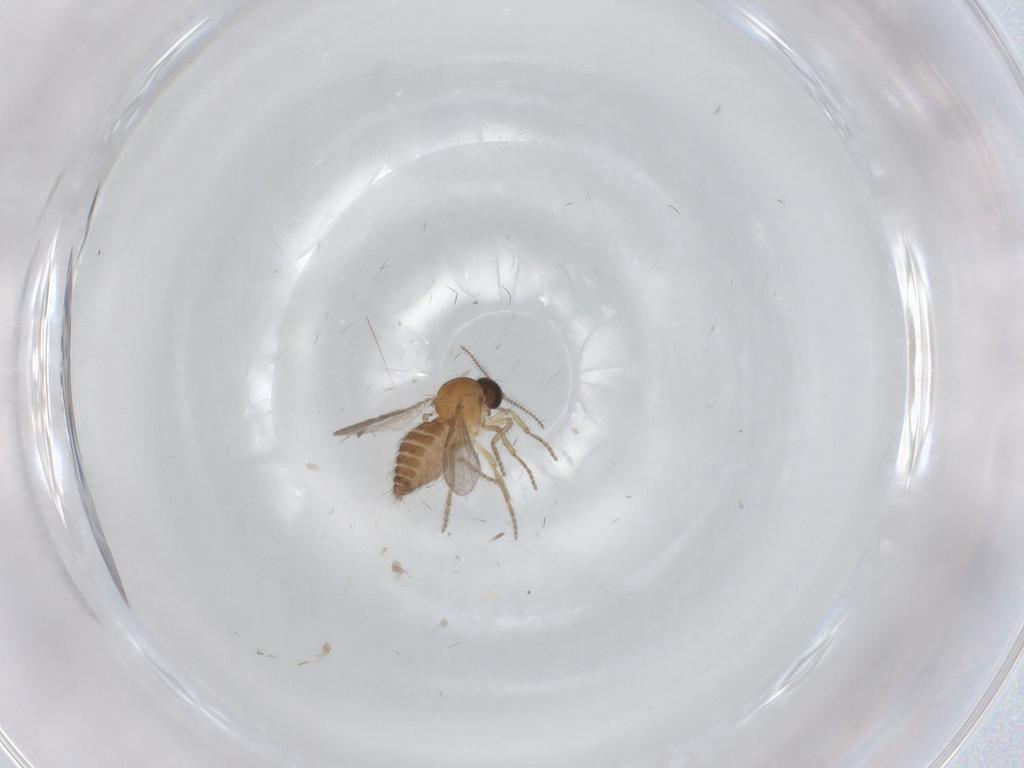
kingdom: Animalia
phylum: Arthropoda
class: Insecta
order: Diptera
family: Ceratopogonidae
